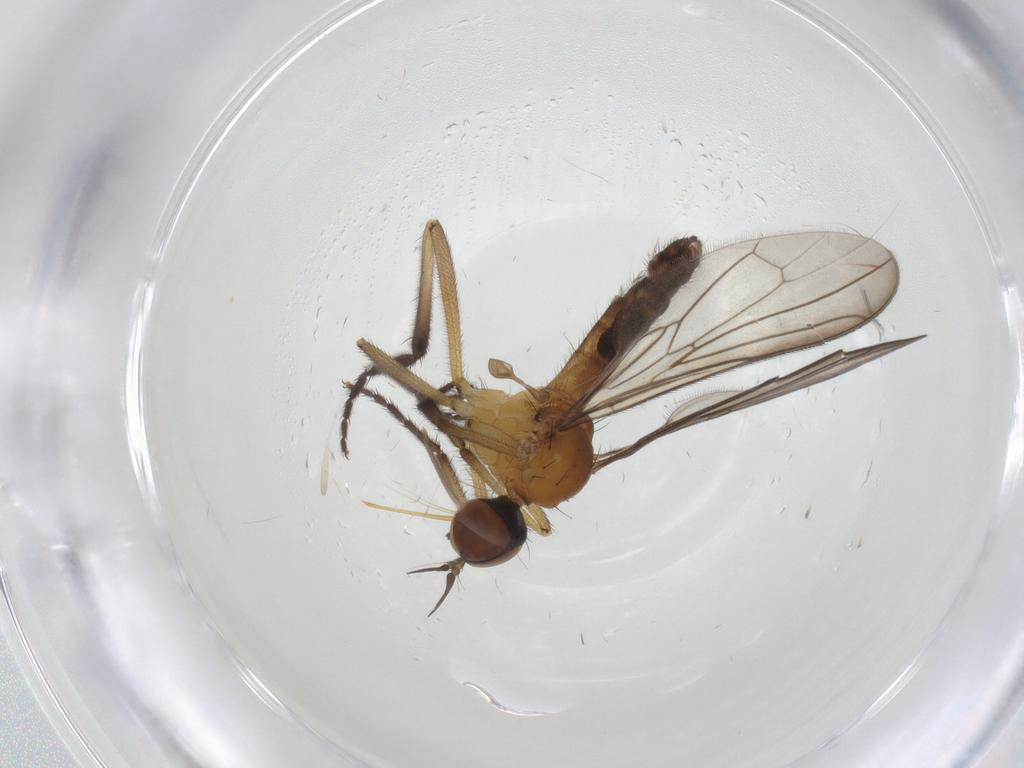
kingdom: Animalia
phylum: Arthropoda
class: Insecta
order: Diptera
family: Empididae
